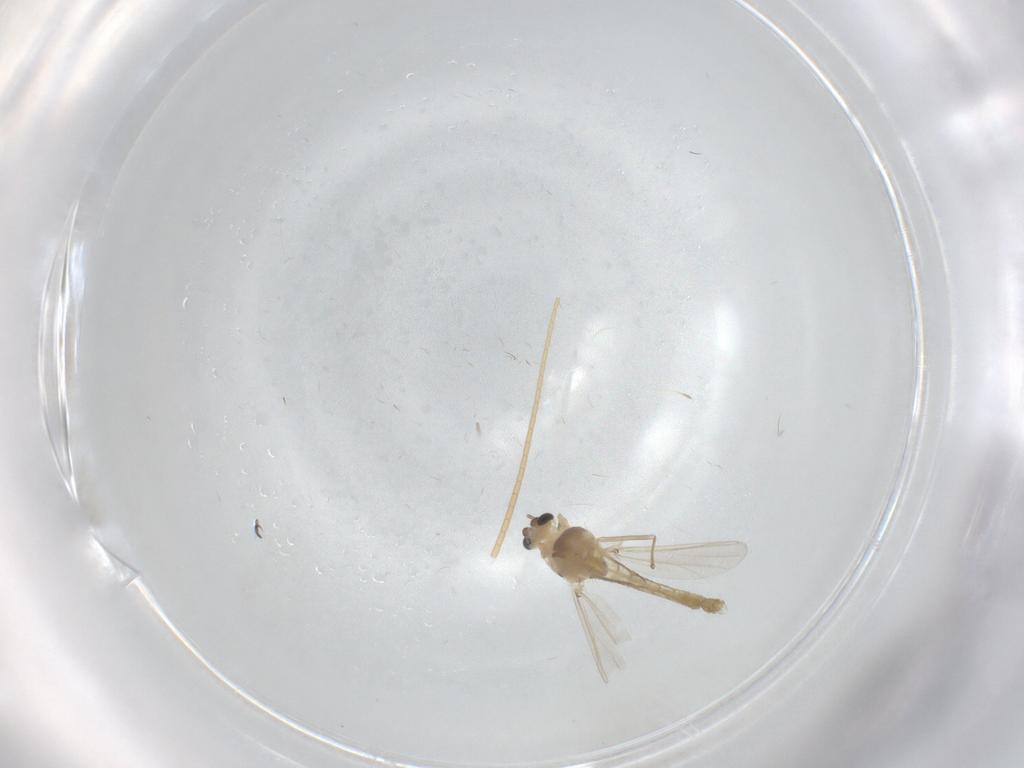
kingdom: Animalia
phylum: Arthropoda
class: Insecta
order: Diptera
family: Chironomidae
